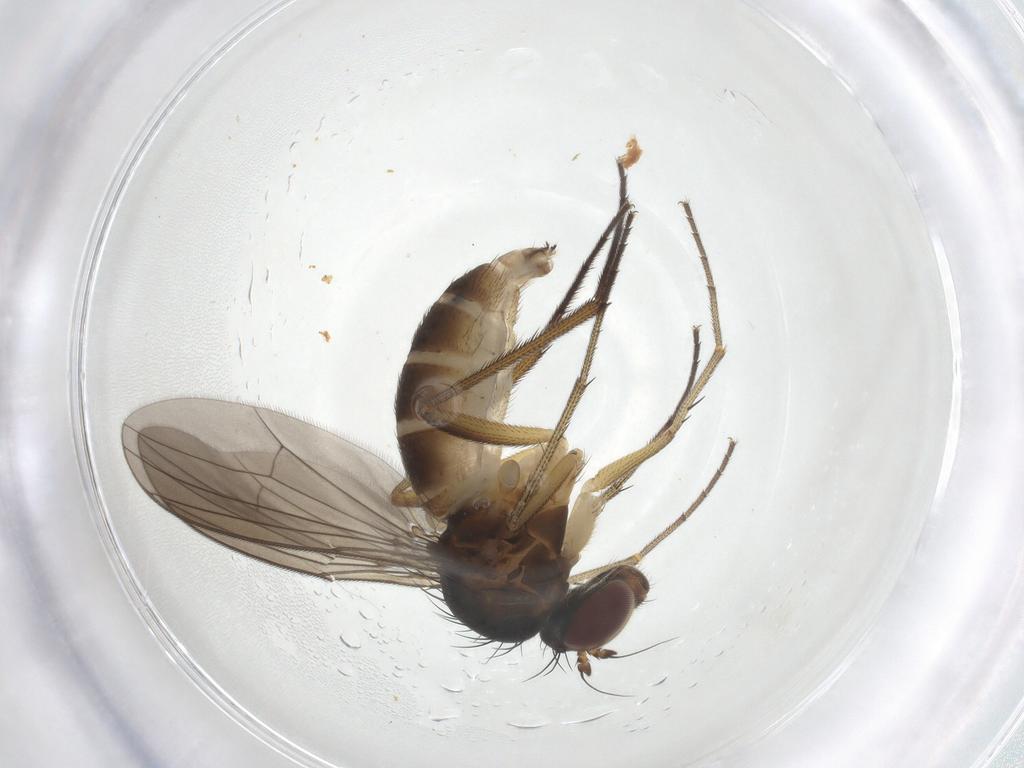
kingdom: Animalia
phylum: Arthropoda
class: Insecta
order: Diptera
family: Dolichopodidae
